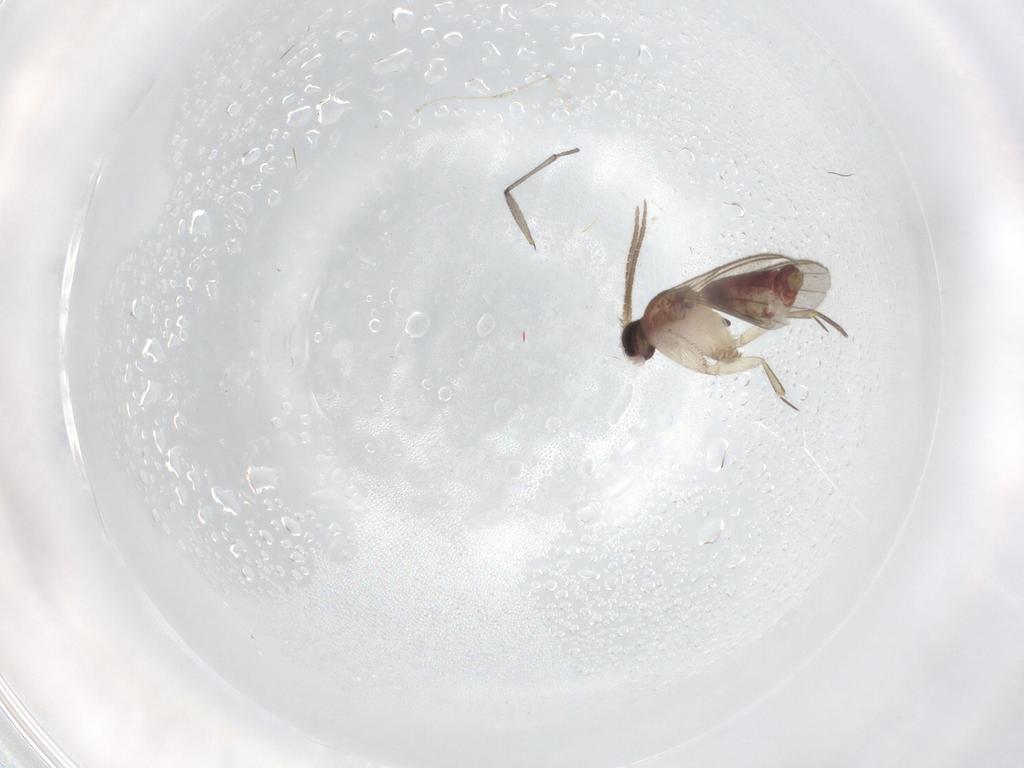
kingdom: Animalia
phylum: Arthropoda
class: Insecta
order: Diptera
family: Mycetophilidae
